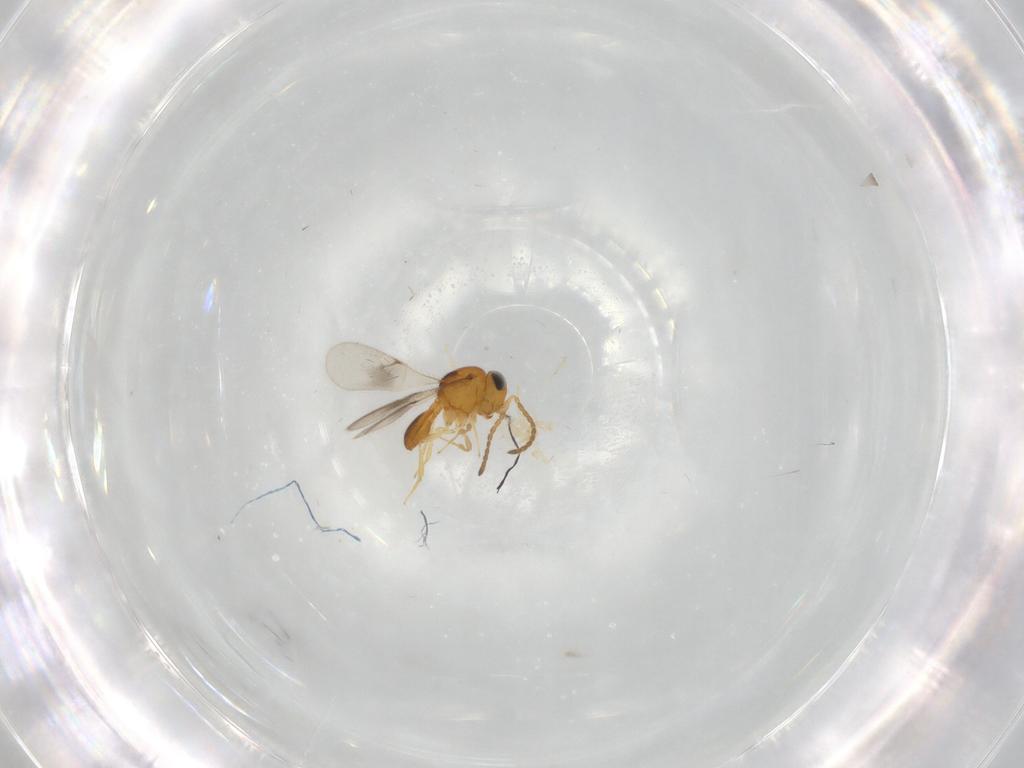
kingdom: Animalia
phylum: Arthropoda
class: Insecta
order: Hymenoptera
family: Scelionidae
